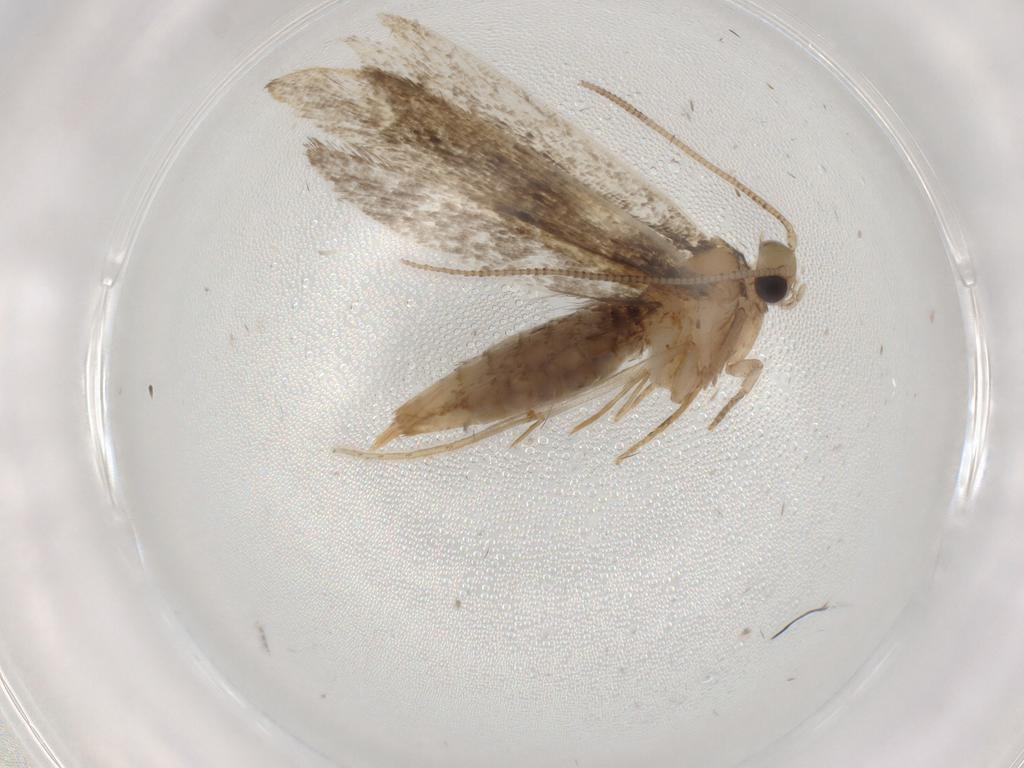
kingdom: Animalia
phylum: Arthropoda
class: Insecta
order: Lepidoptera
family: Tineidae
